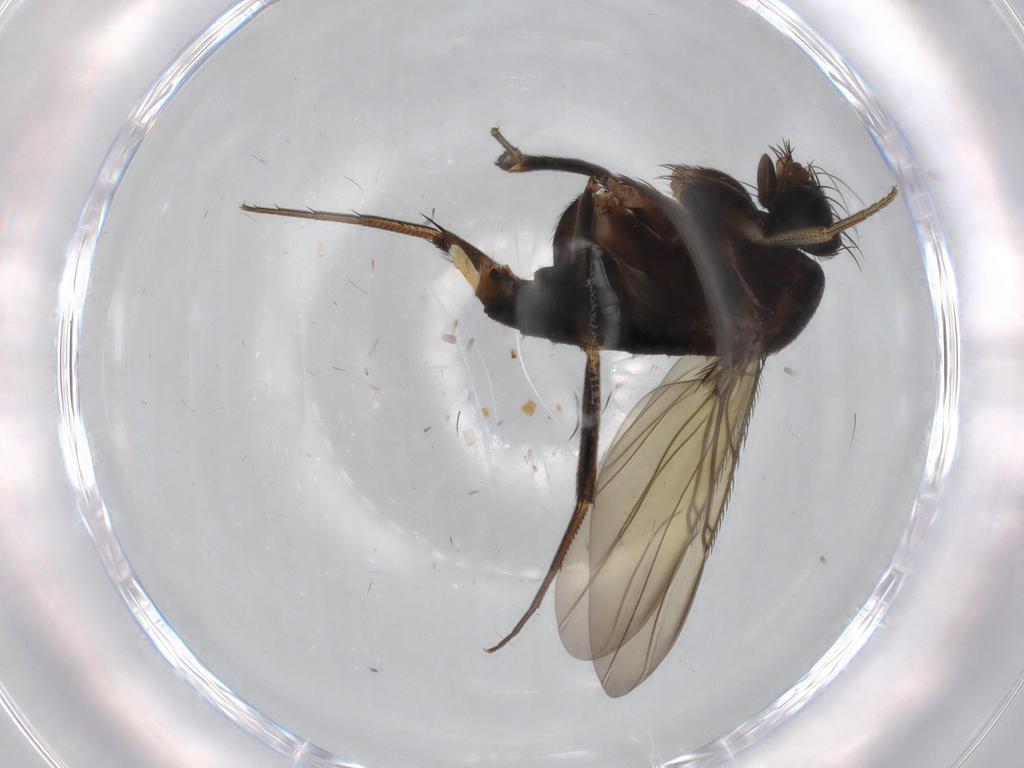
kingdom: Animalia
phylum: Arthropoda
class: Insecta
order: Diptera
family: Phoridae
